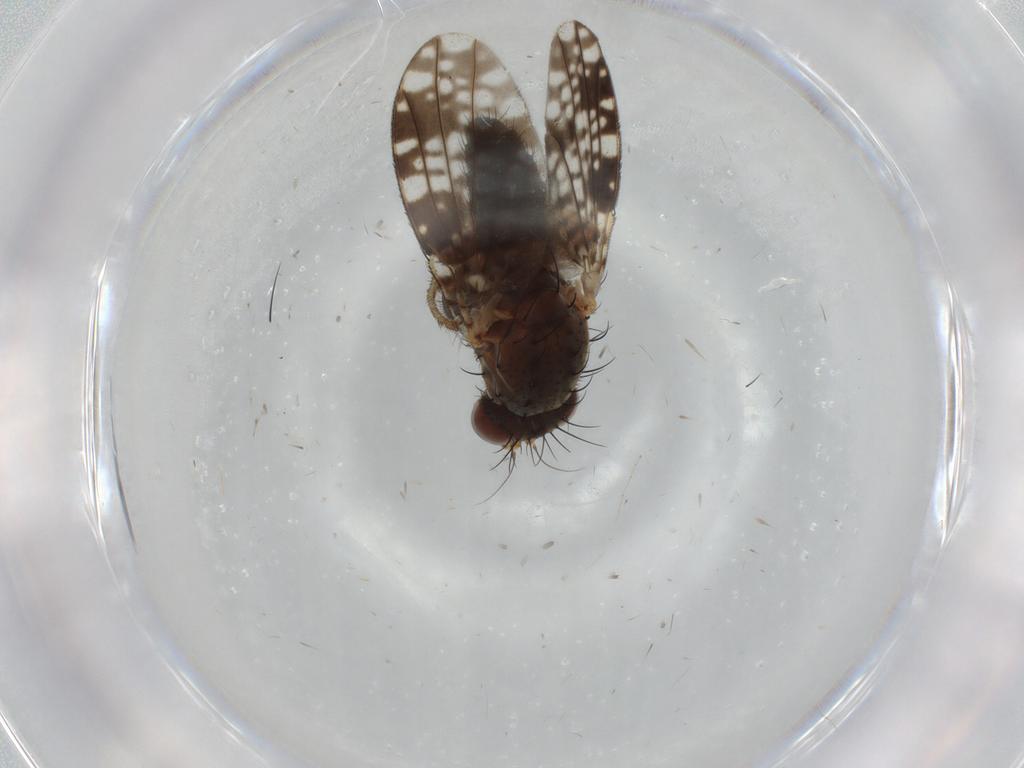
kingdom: Animalia
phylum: Arthropoda
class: Insecta
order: Diptera
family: Tephritidae
